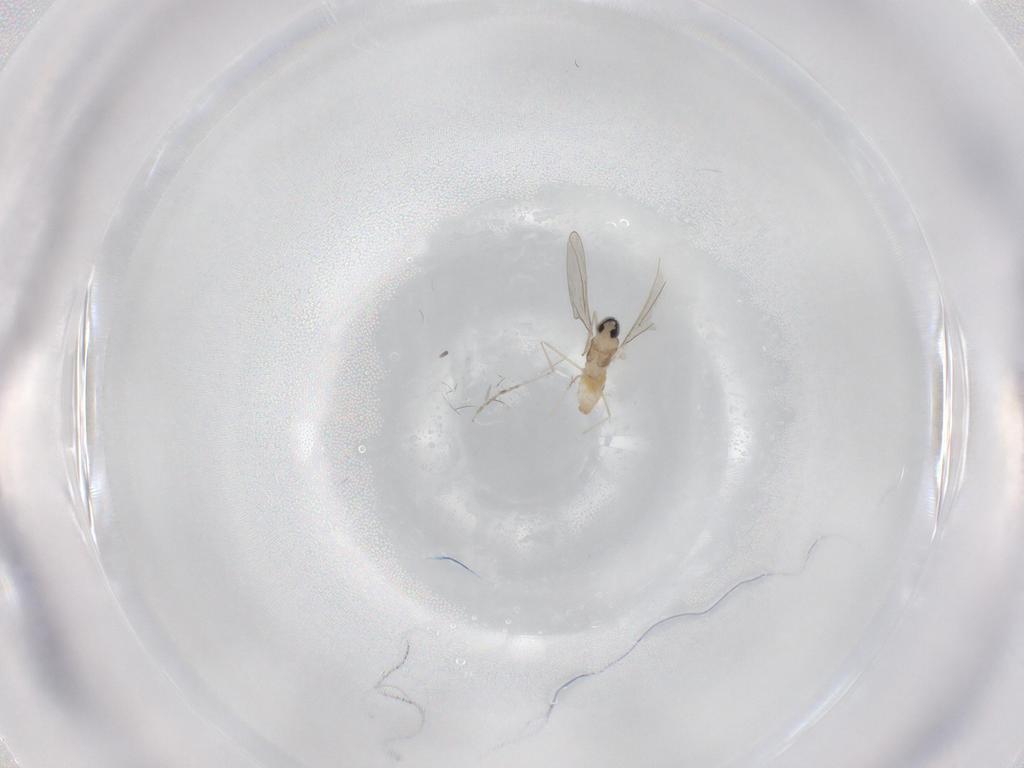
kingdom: Animalia
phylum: Arthropoda
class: Insecta
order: Diptera
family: Cecidomyiidae
